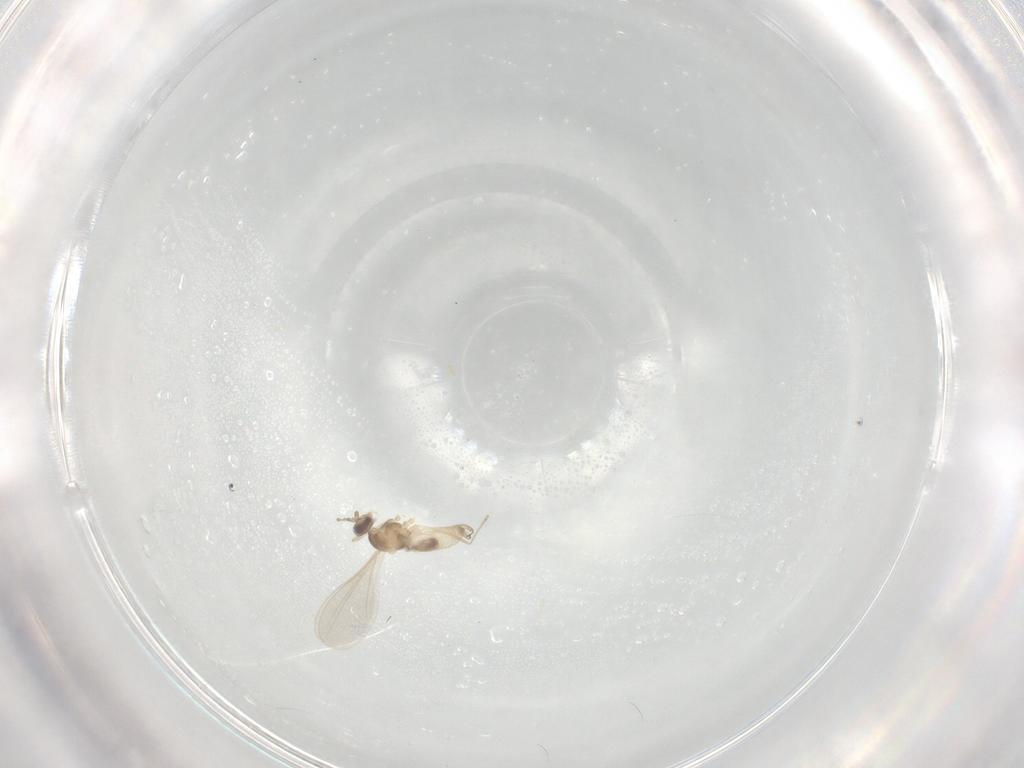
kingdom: Animalia
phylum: Arthropoda
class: Insecta
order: Diptera
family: Cecidomyiidae
